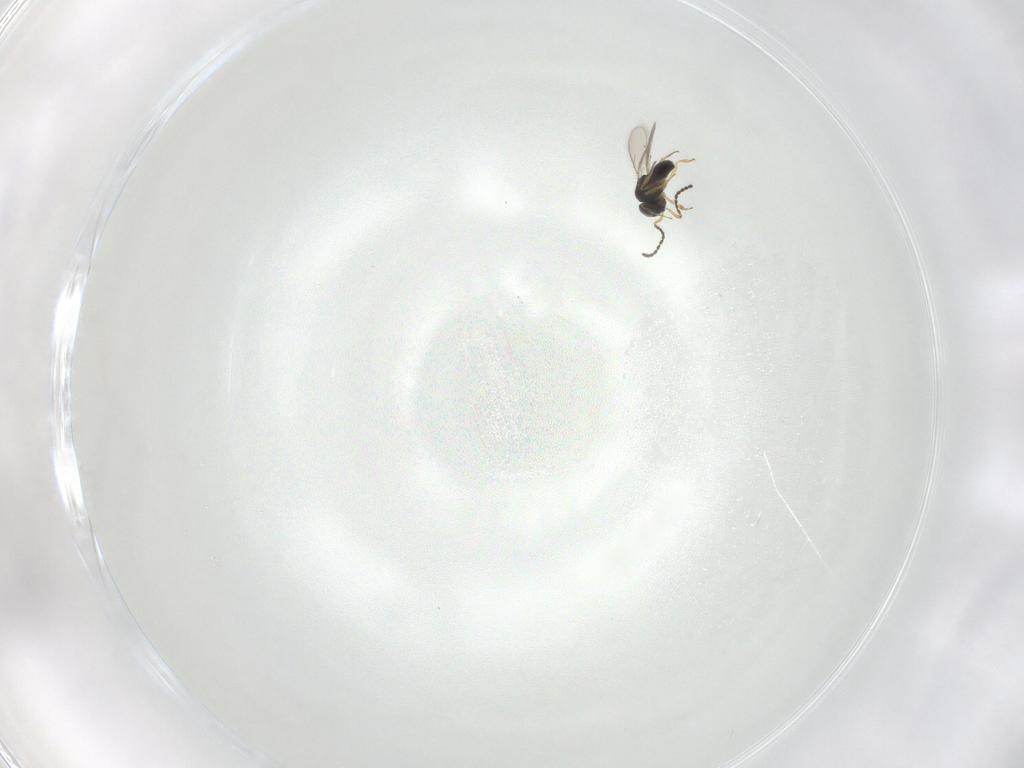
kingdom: Animalia
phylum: Arthropoda
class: Insecta
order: Hymenoptera
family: Scelionidae
